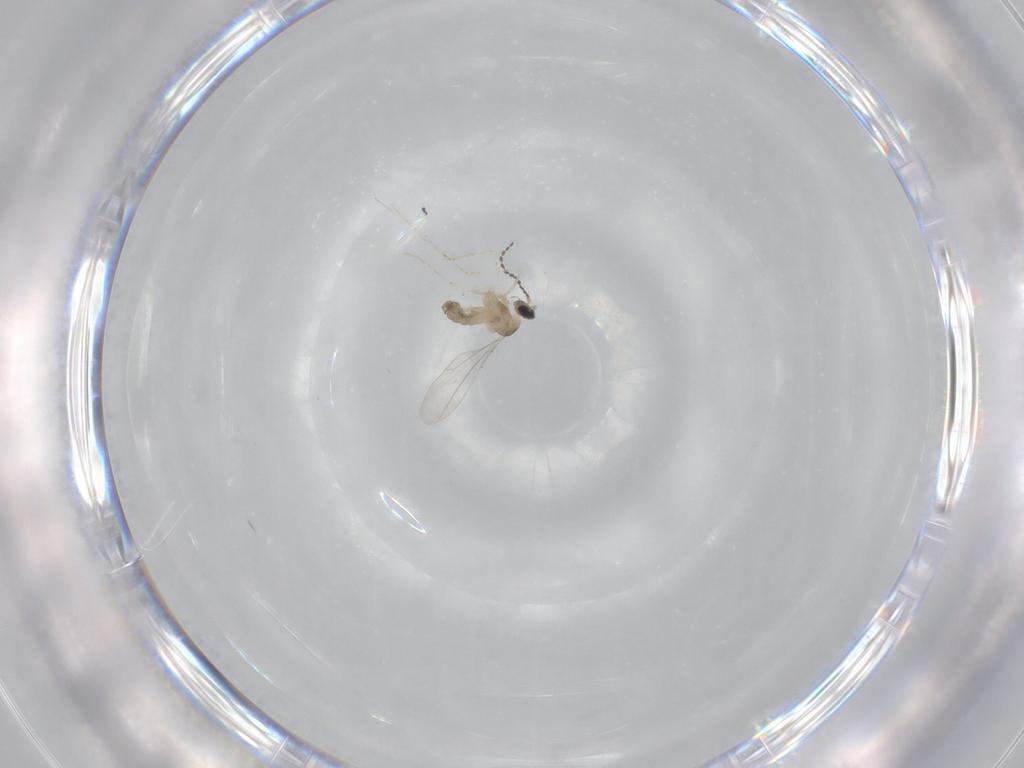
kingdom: Animalia
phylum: Arthropoda
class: Insecta
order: Diptera
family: Cecidomyiidae
